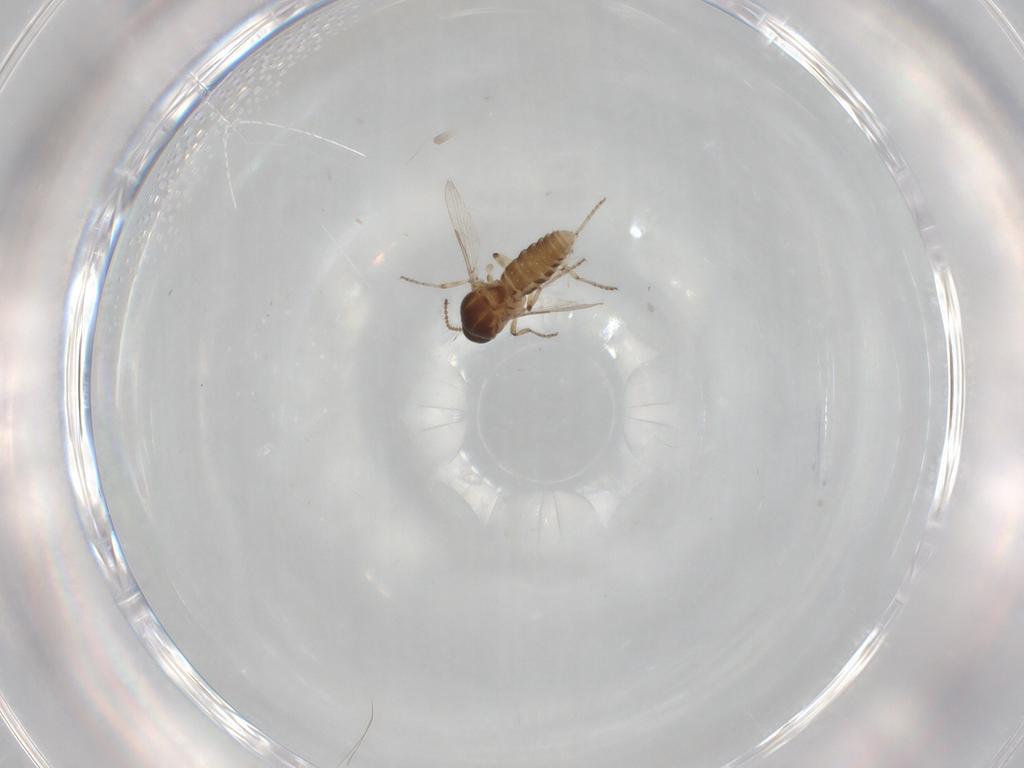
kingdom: Animalia
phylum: Arthropoda
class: Insecta
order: Diptera
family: Ceratopogonidae
